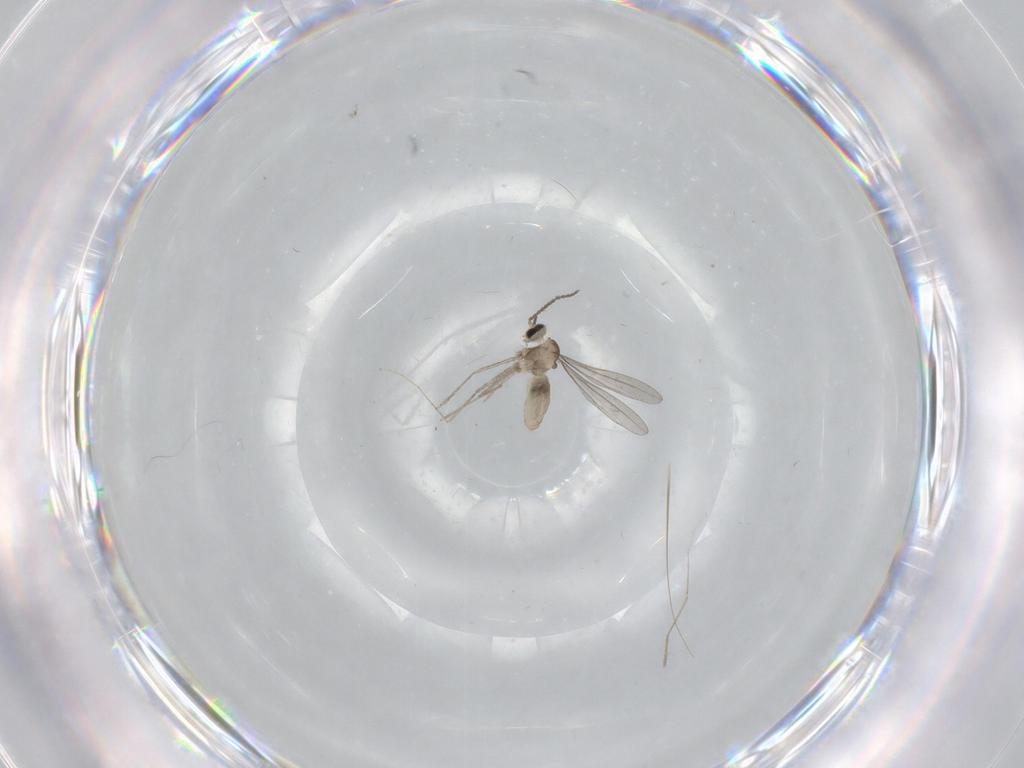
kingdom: Animalia
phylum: Arthropoda
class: Insecta
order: Diptera
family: Cecidomyiidae
